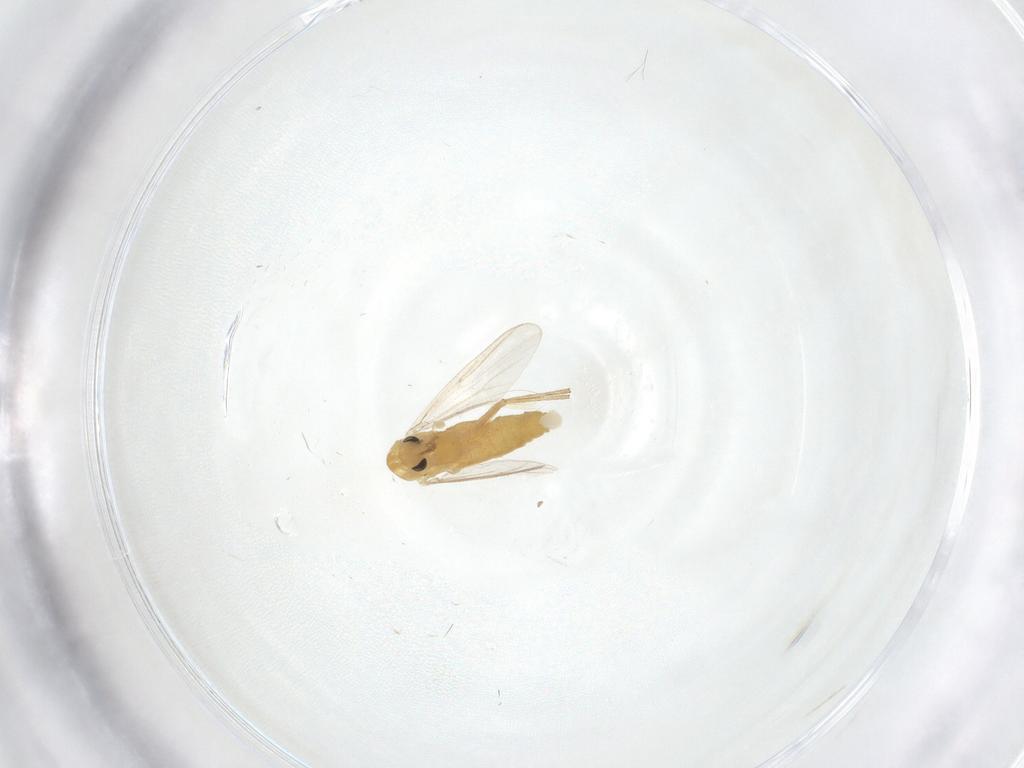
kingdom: Animalia
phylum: Arthropoda
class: Insecta
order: Diptera
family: Chironomidae
